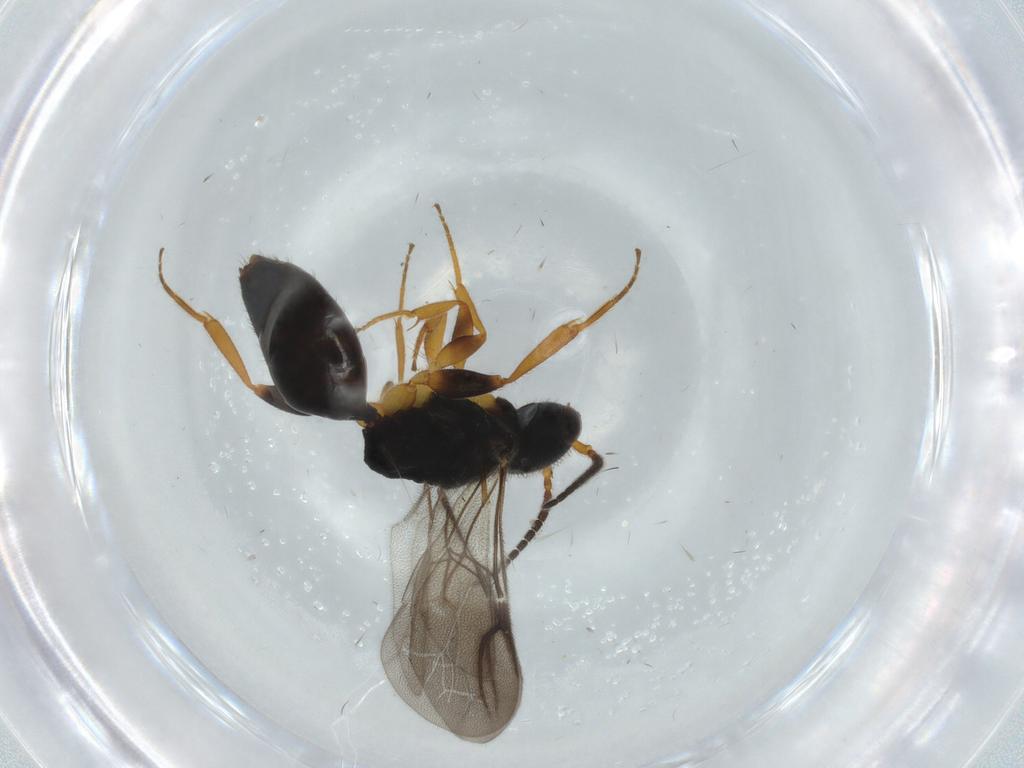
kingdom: Animalia
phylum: Arthropoda
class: Insecta
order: Hymenoptera
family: Bethylidae
